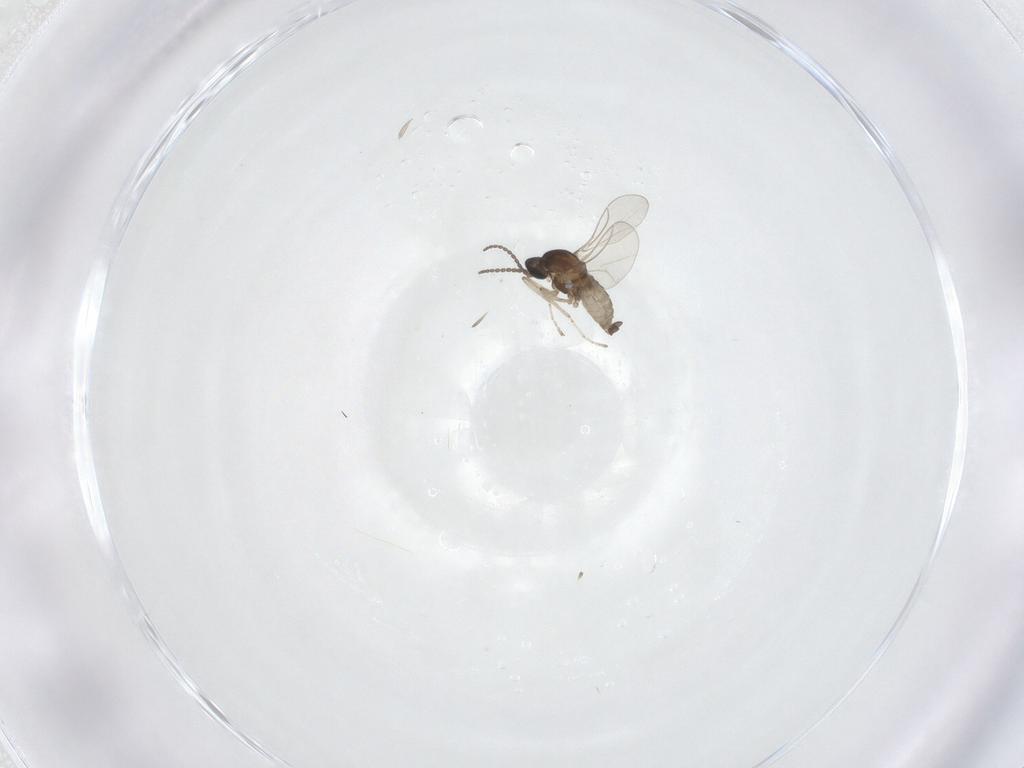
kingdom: Animalia
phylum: Arthropoda
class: Insecta
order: Diptera
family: Cecidomyiidae
